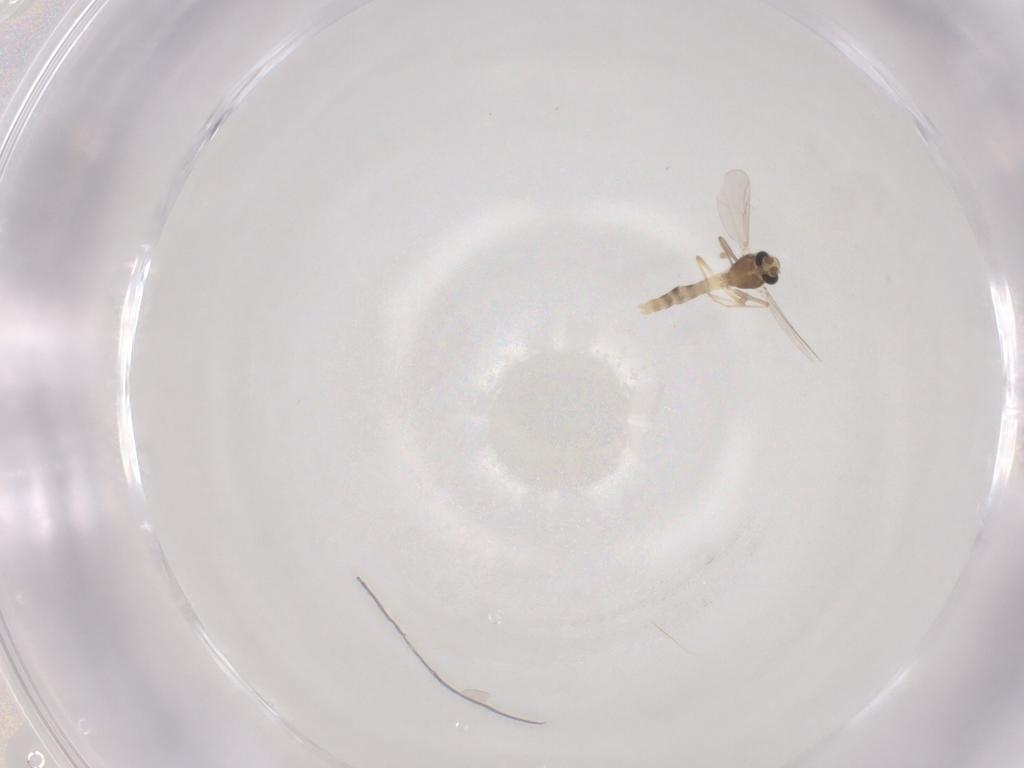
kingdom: Animalia
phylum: Arthropoda
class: Insecta
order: Diptera
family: Chironomidae
